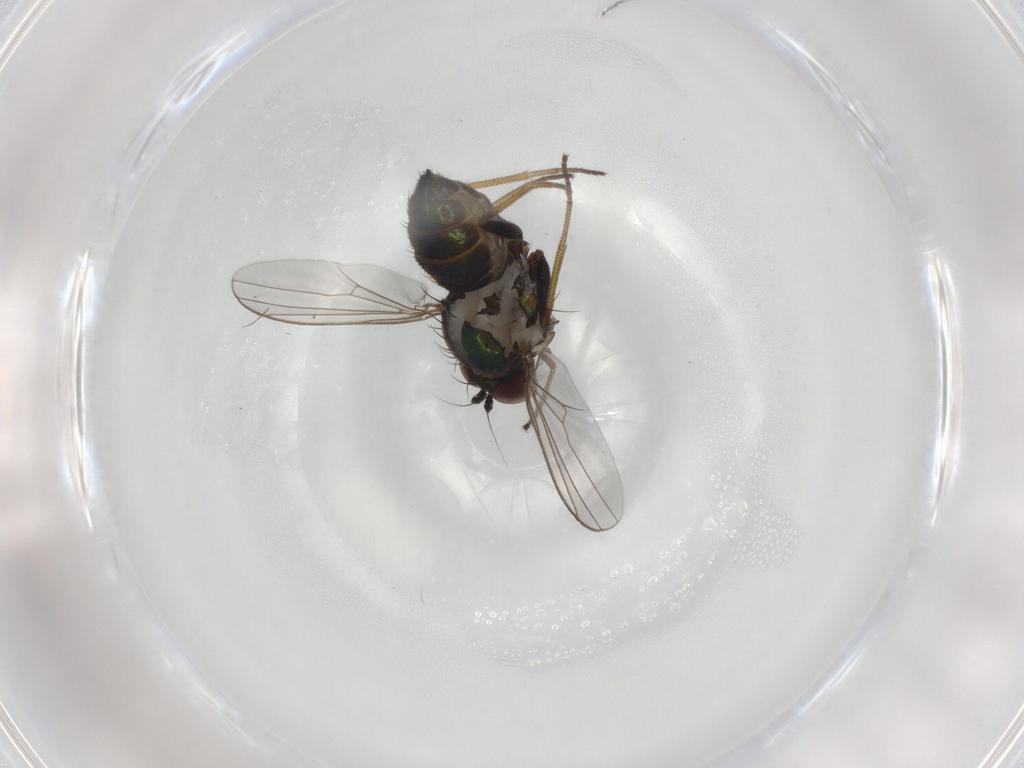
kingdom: Animalia
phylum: Arthropoda
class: Insecta
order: Diptera
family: Dolichopodidae
